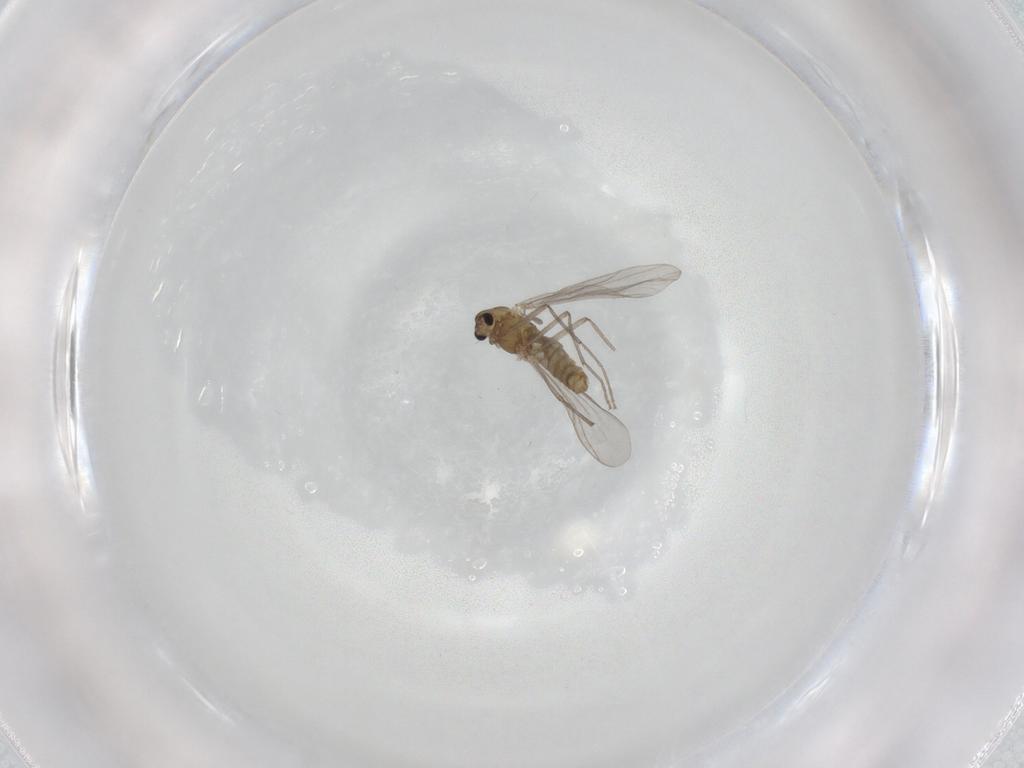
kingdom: Animalia
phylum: Arthropoda
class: Insecta
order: Diptera
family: Chironomidae
